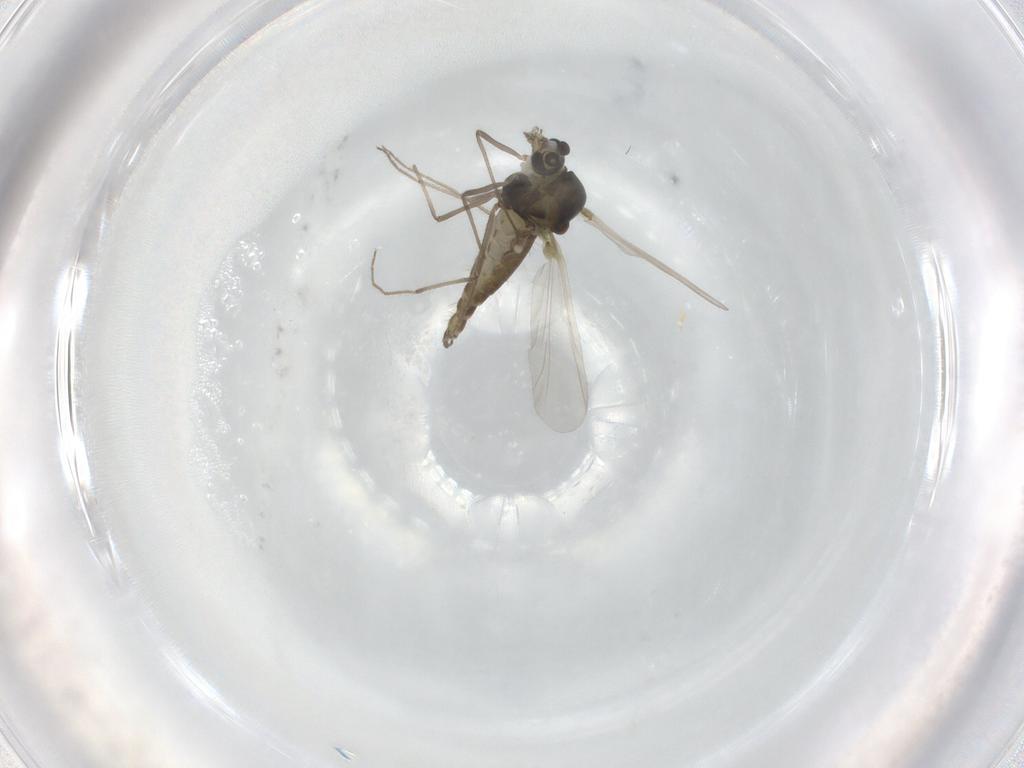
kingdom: Animalia
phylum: Arthropoda
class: Insecta
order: Diptera
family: Chironomidae
